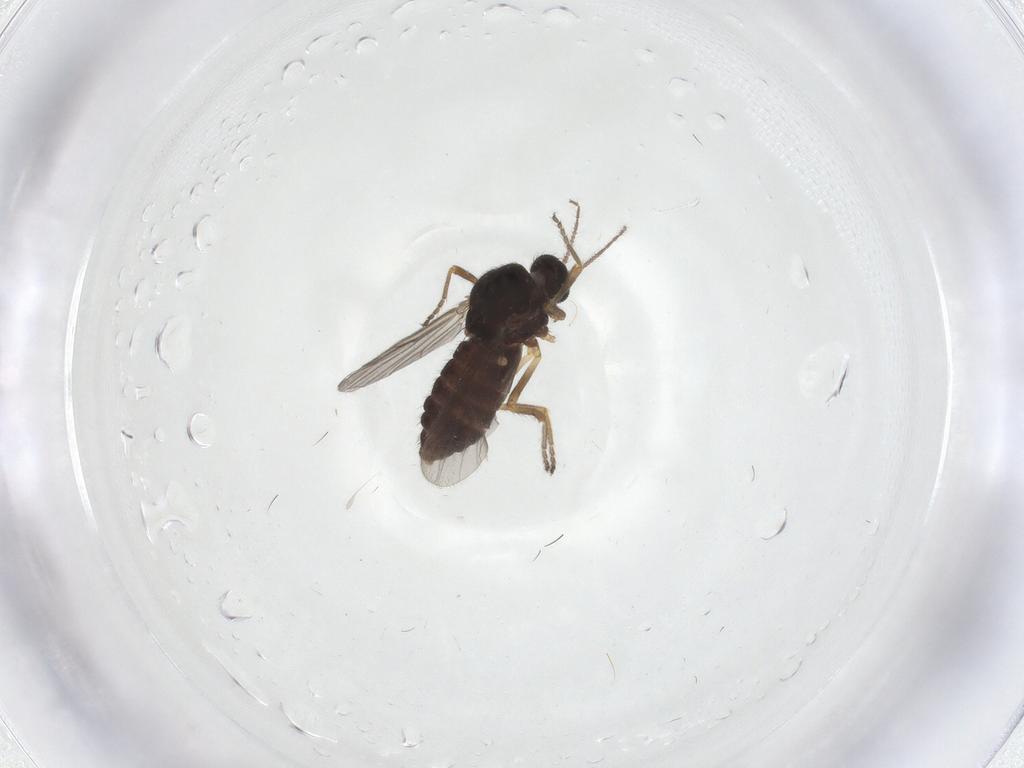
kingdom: Animalia
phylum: Arthropoda
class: Insecta
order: Diptera
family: Ceratopogonidae
